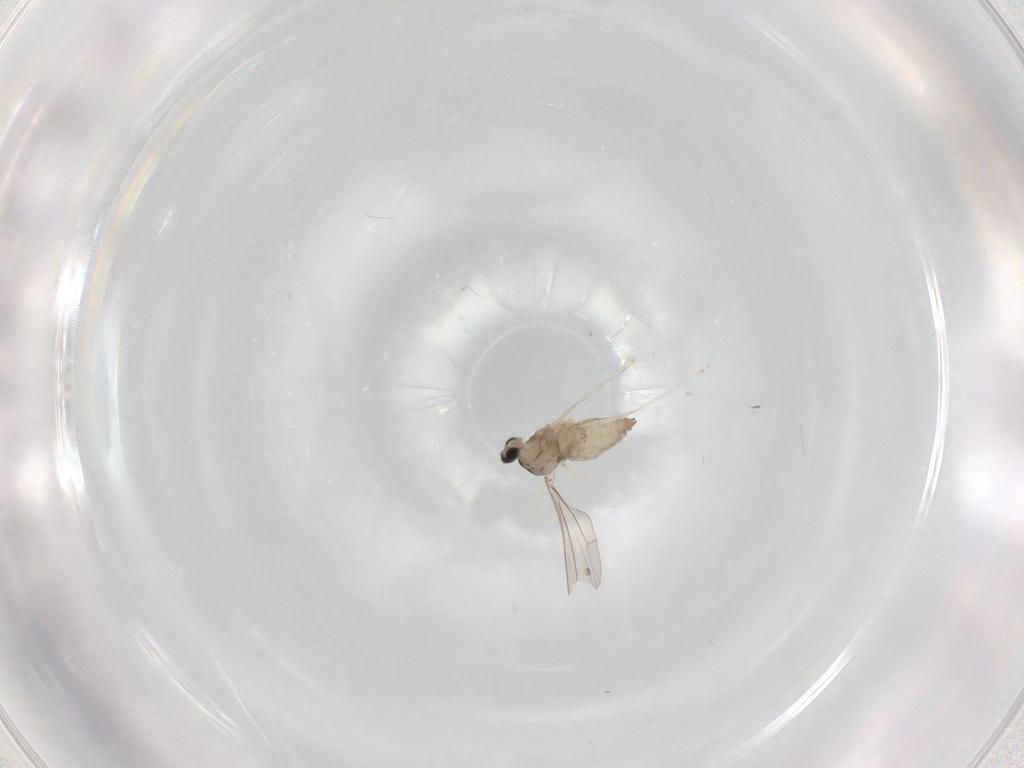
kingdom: Animalia
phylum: Arthropoda
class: Insecta
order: Diptera
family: Cecidomyiidae
